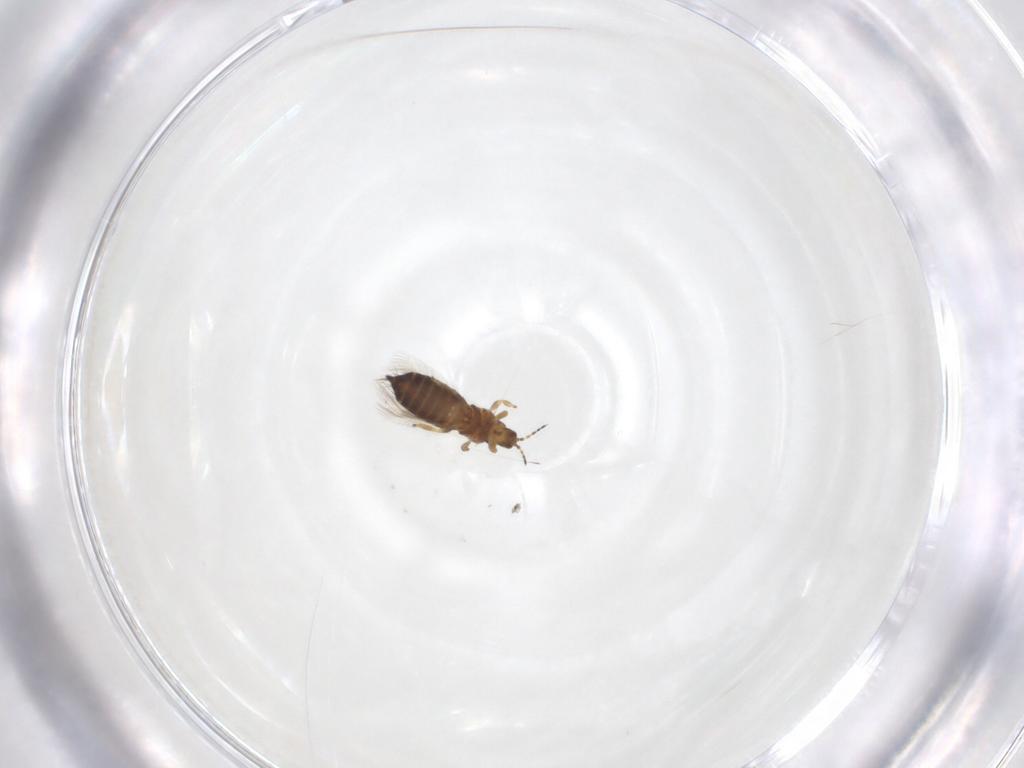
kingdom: Animalia
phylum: Arthropoda
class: Insecta
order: Thysanoptera
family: Thripidae
